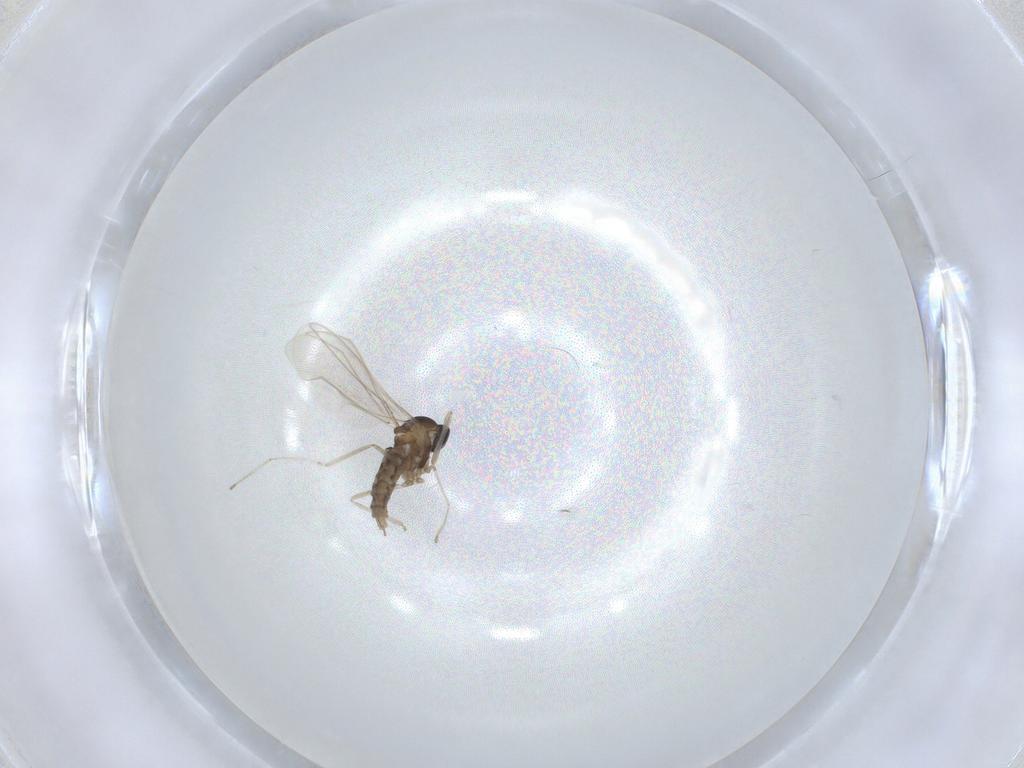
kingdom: Animalia
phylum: Arthropoda
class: Insecta
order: Diptera
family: Cecidomyiidae
